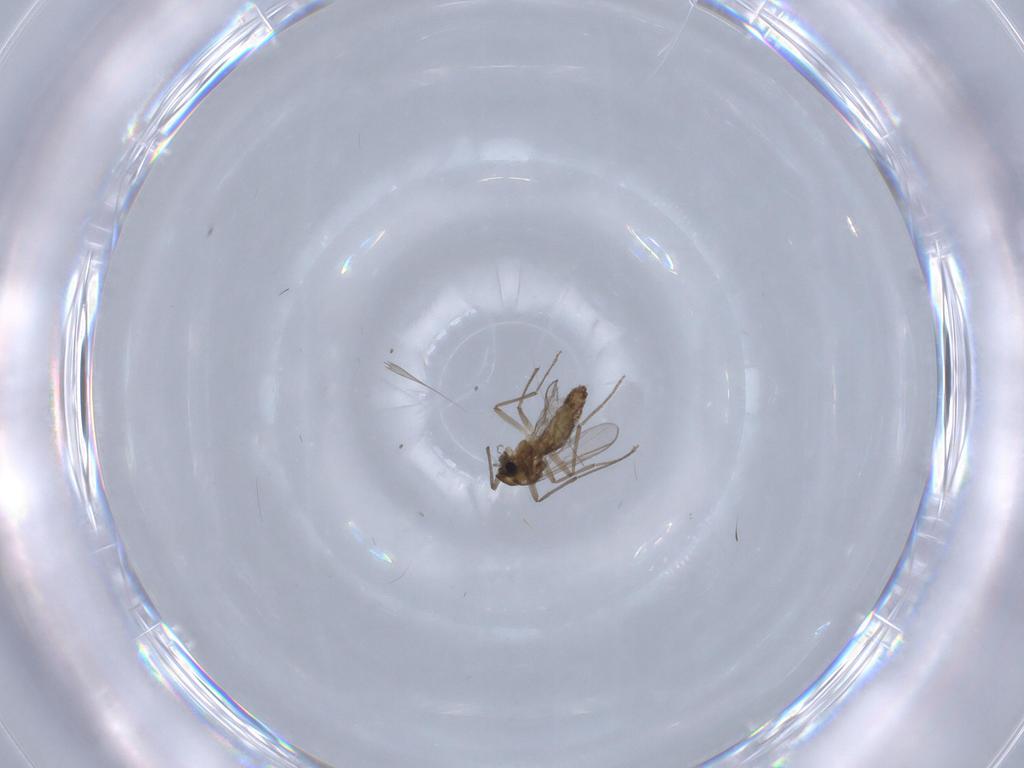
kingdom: Animalia
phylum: Arthropoda
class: Insecta
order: Diptera
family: Chironomidae
